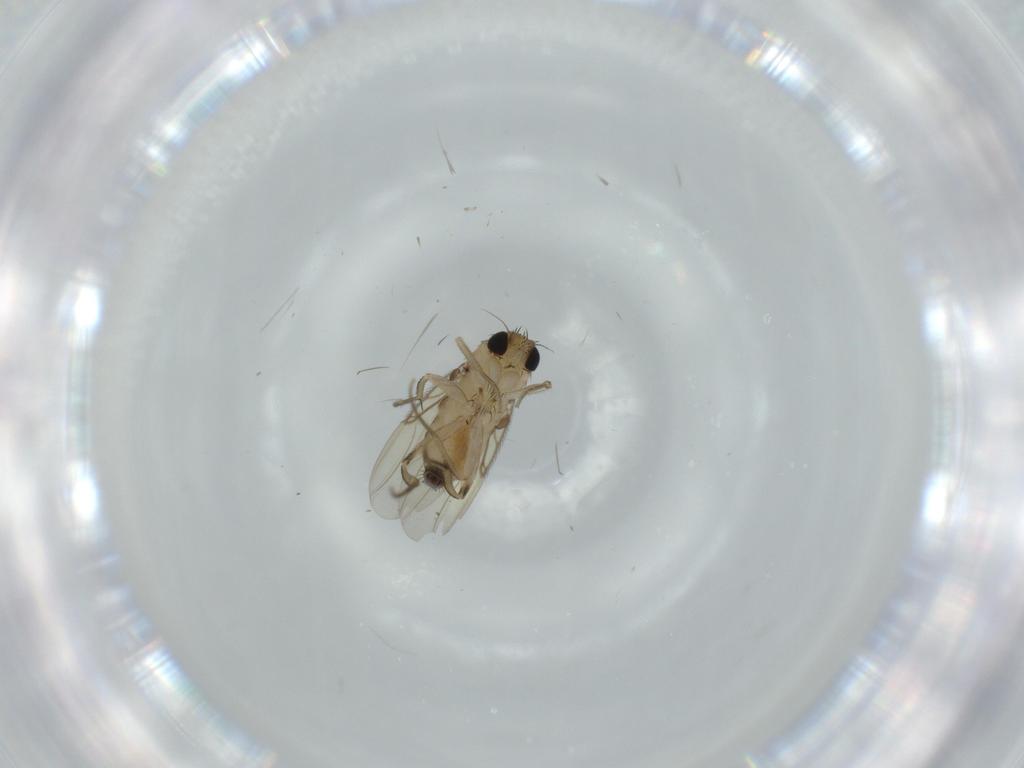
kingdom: Animalia
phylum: Arthropoda
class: Insecta
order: Diptera
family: Phoridae
